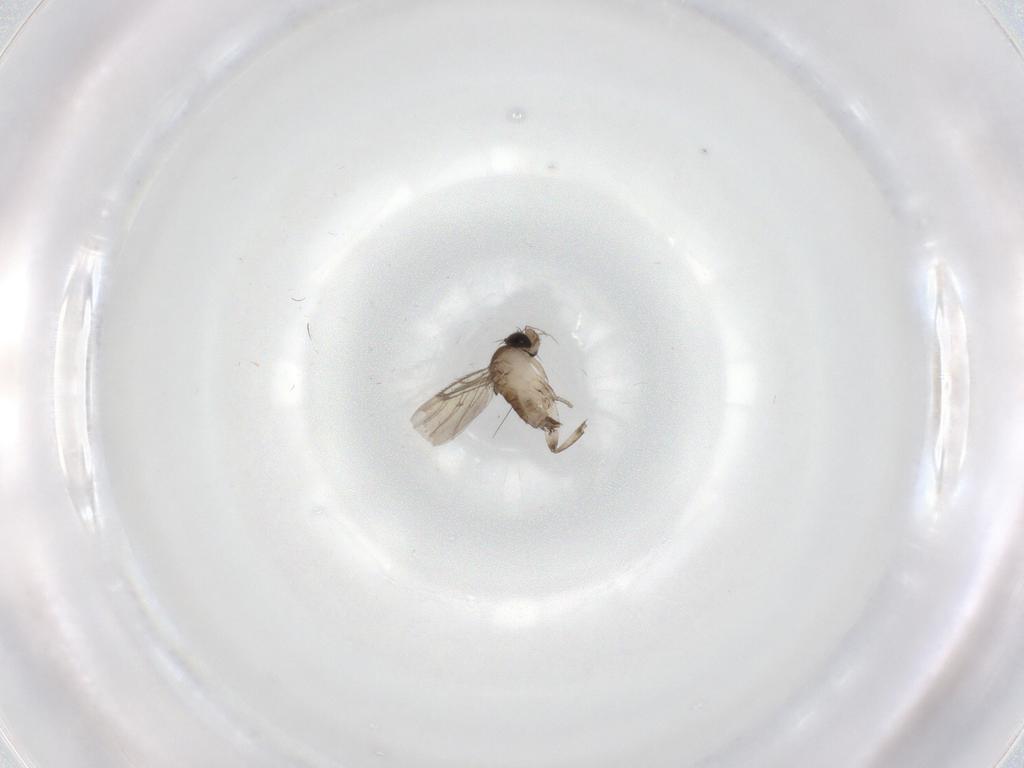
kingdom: Animalia
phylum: Arthropoda
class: Insecta
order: Diptera
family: Phoridae
